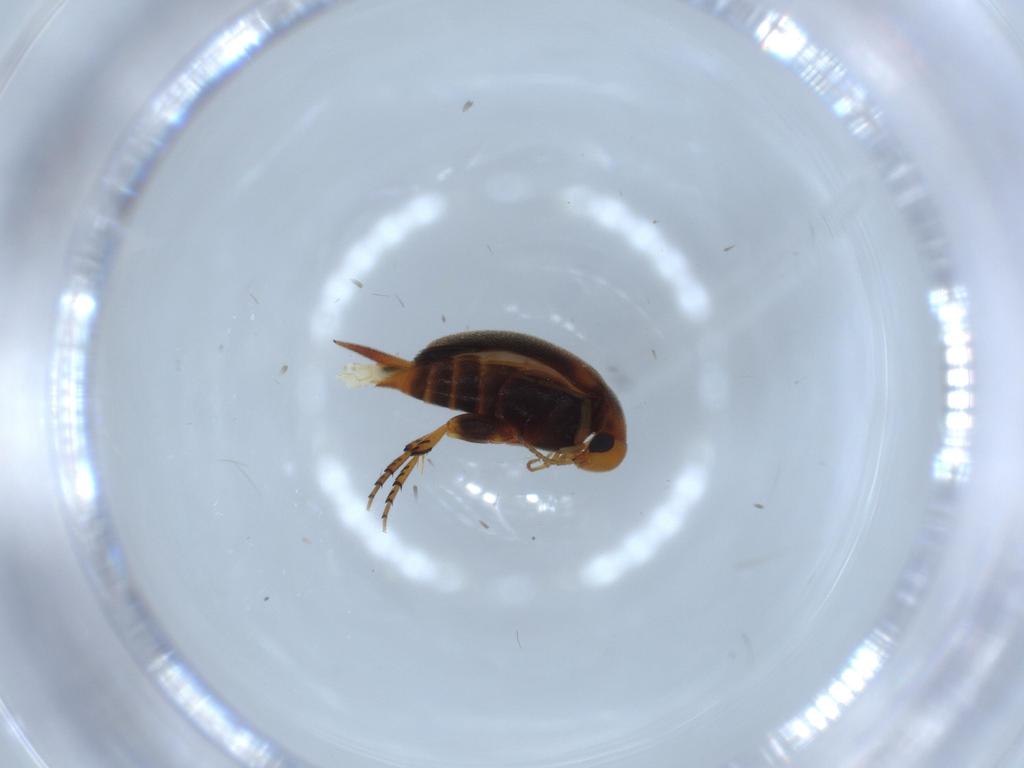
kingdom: Animalia
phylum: Arthropoda
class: Insecta
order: Coleoptera
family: Mordellidae
